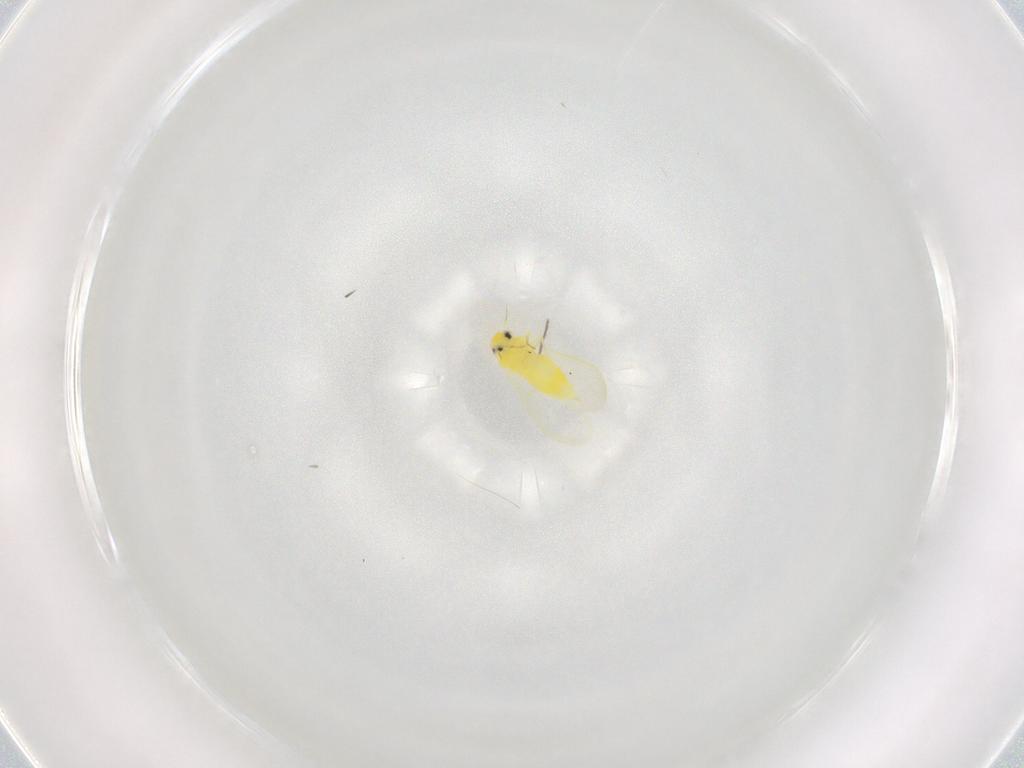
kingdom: Animalia
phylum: Arthropoda
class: Insecta
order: Hemiptera
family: Aleyrodidae
